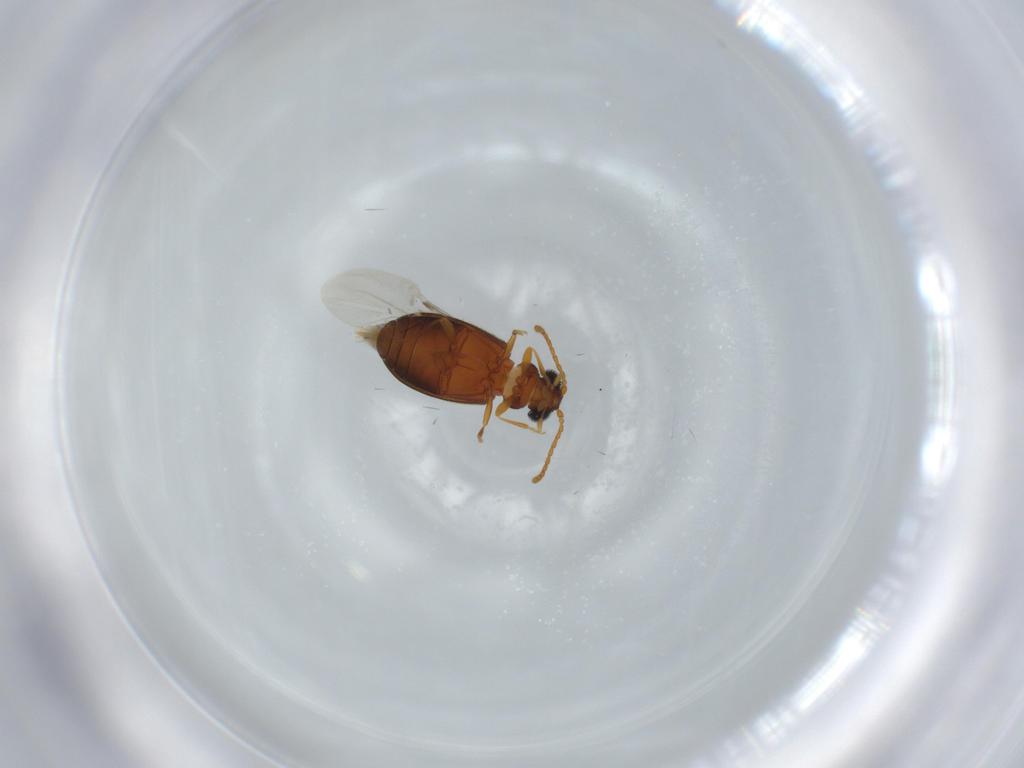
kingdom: Animalia
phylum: Arthropoda
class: Insecta
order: Coleoptera
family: Aderidae
